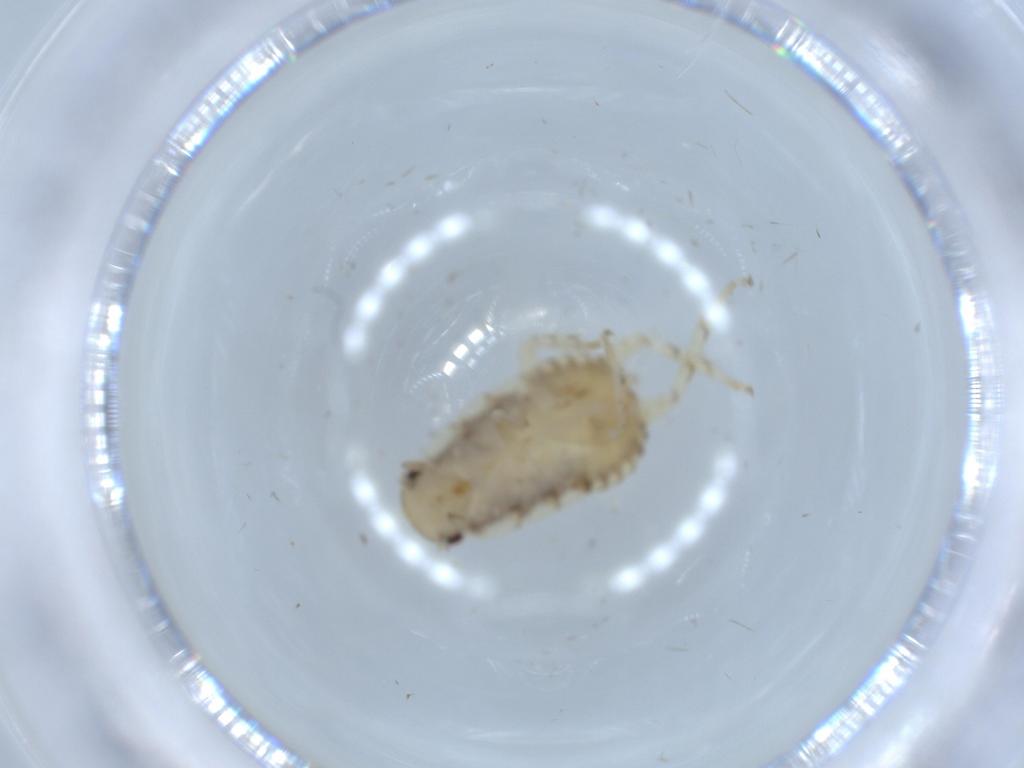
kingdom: Animalia
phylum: Arthropoda
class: Insecta
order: Blattodea
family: Ectobiidae
